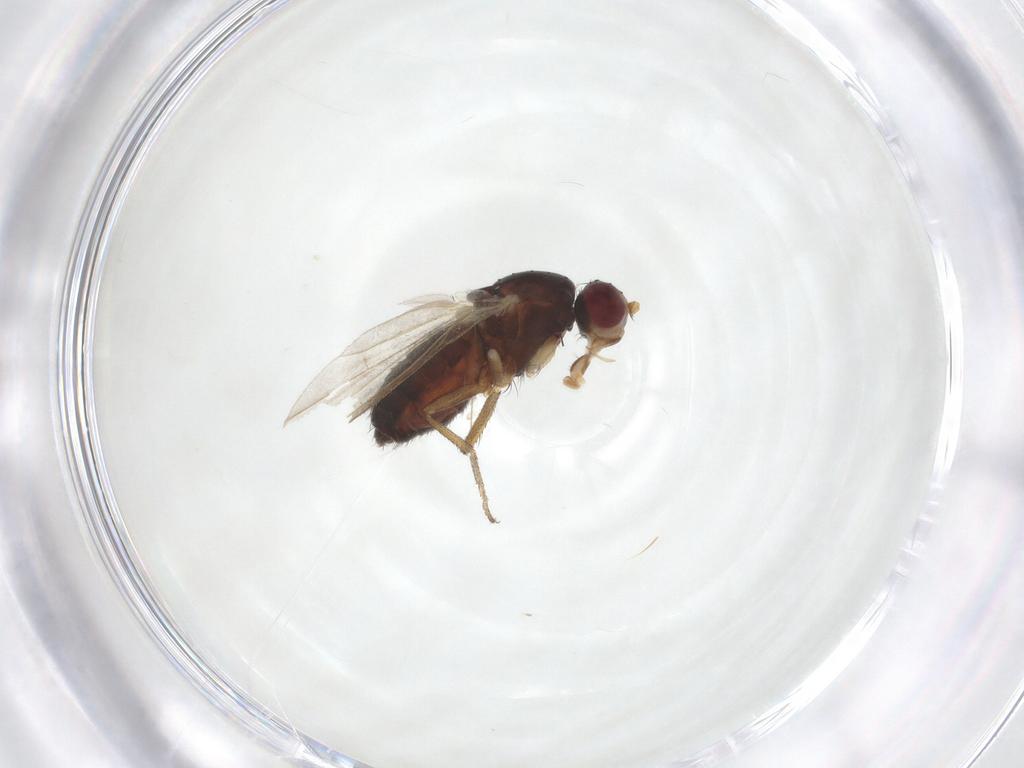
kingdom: Animalia
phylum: Arthropoda
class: Insecta
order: Diptera
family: Heleomyzidae
